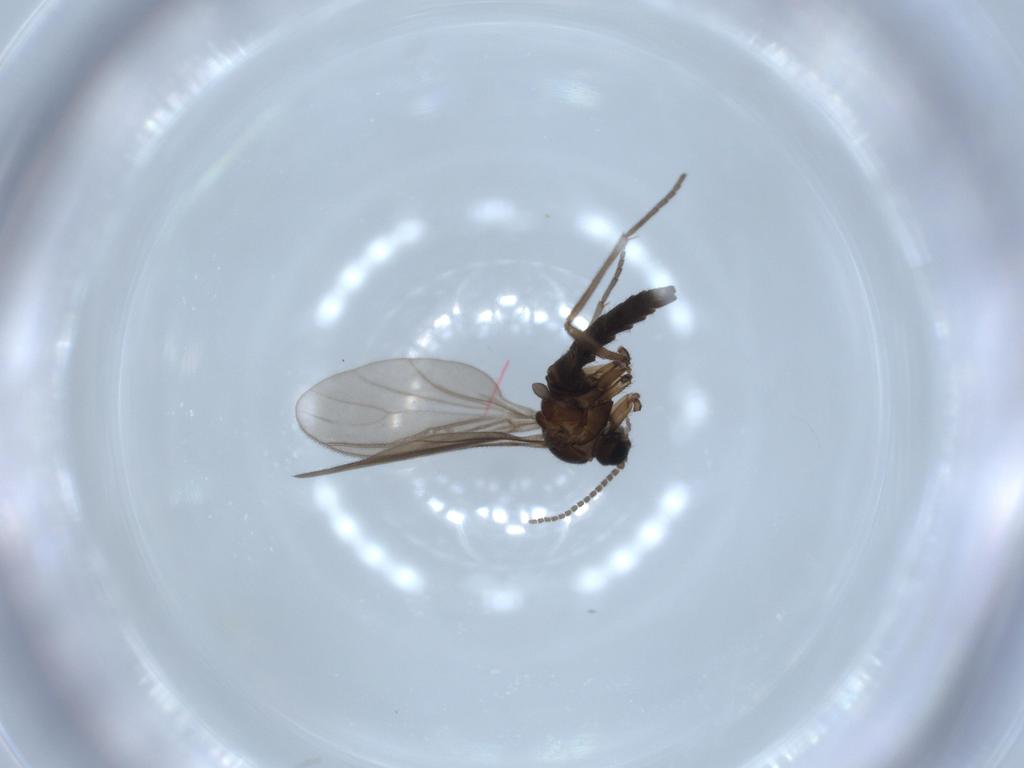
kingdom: Animalia
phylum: Arthropoda
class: Insecta
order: Diptera
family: Sciaridae
